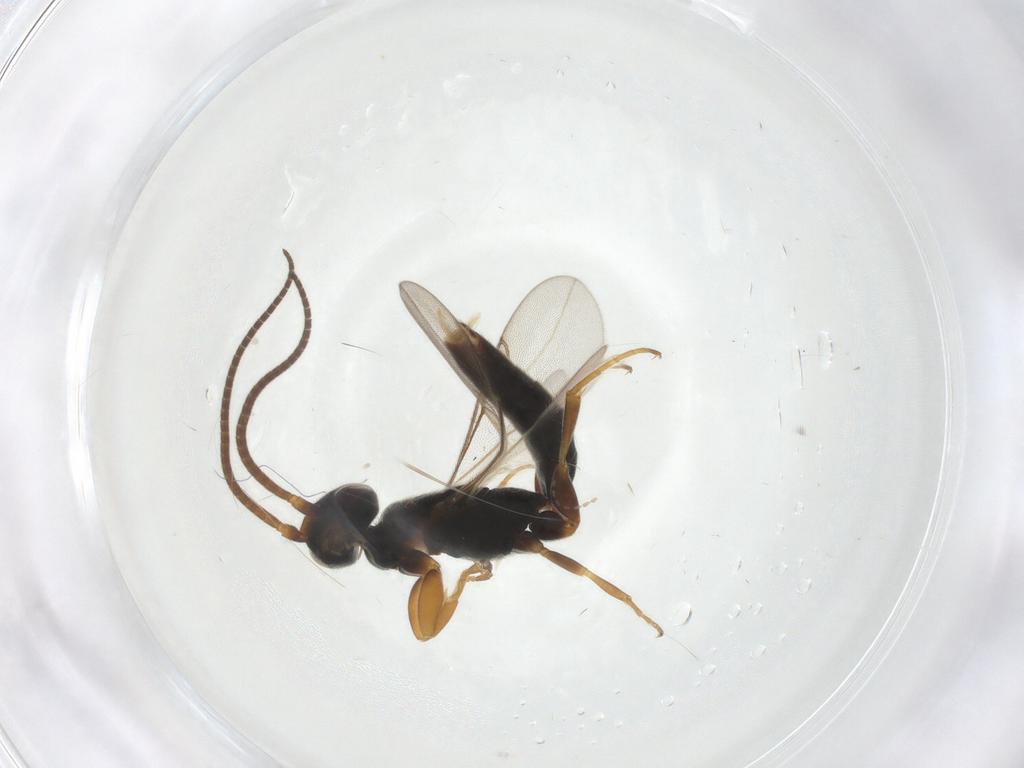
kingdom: Animalia
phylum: Arthropoda
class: Insecta
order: Hymenoptera
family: Sclerogibbidae
